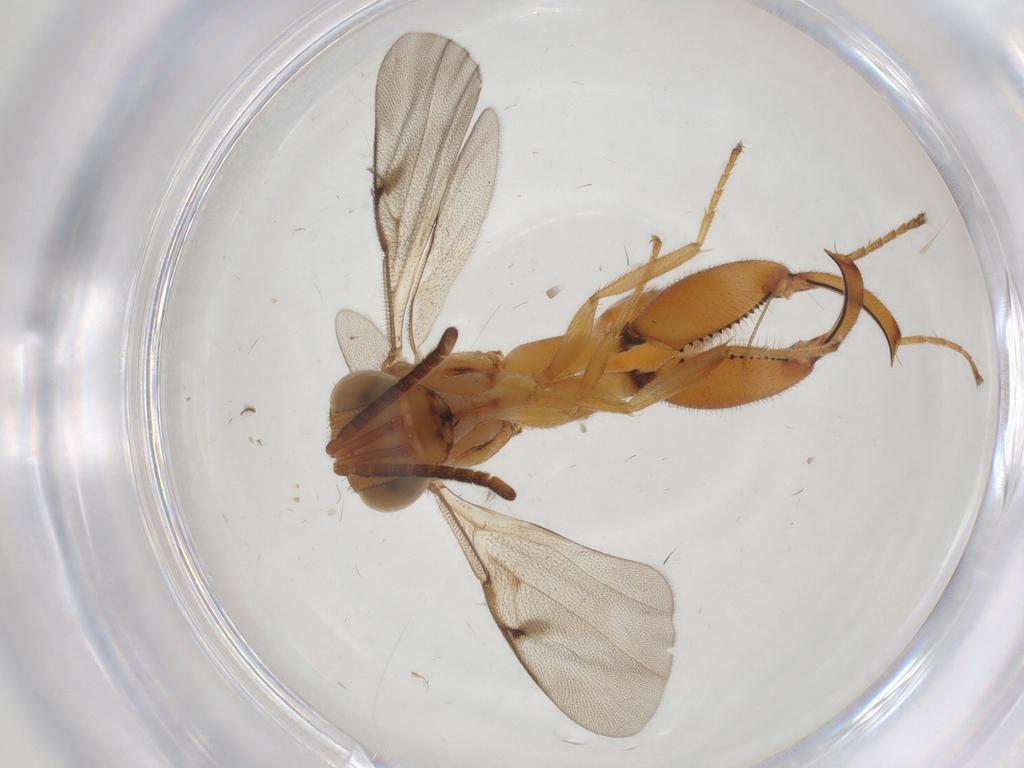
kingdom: Animalia
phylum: Arthropoda
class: Insecta
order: Hymenoptera
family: Chalcididae
